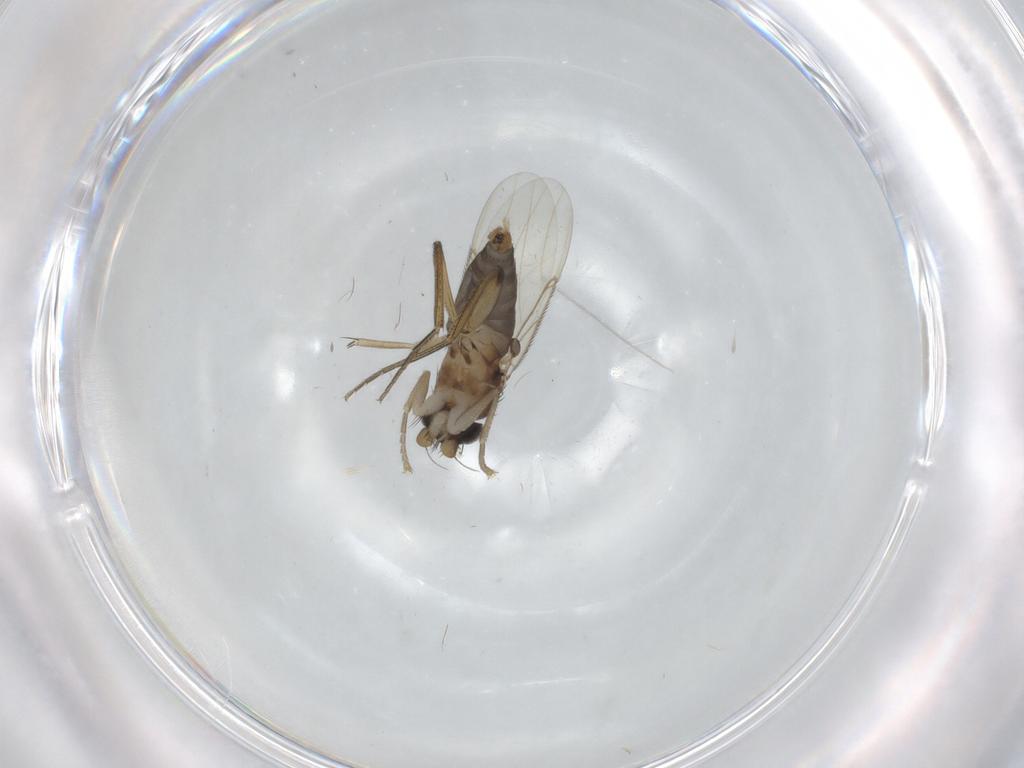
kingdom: Animalia
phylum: Arthropoda
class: Insecta
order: Diptera
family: Phoridae
